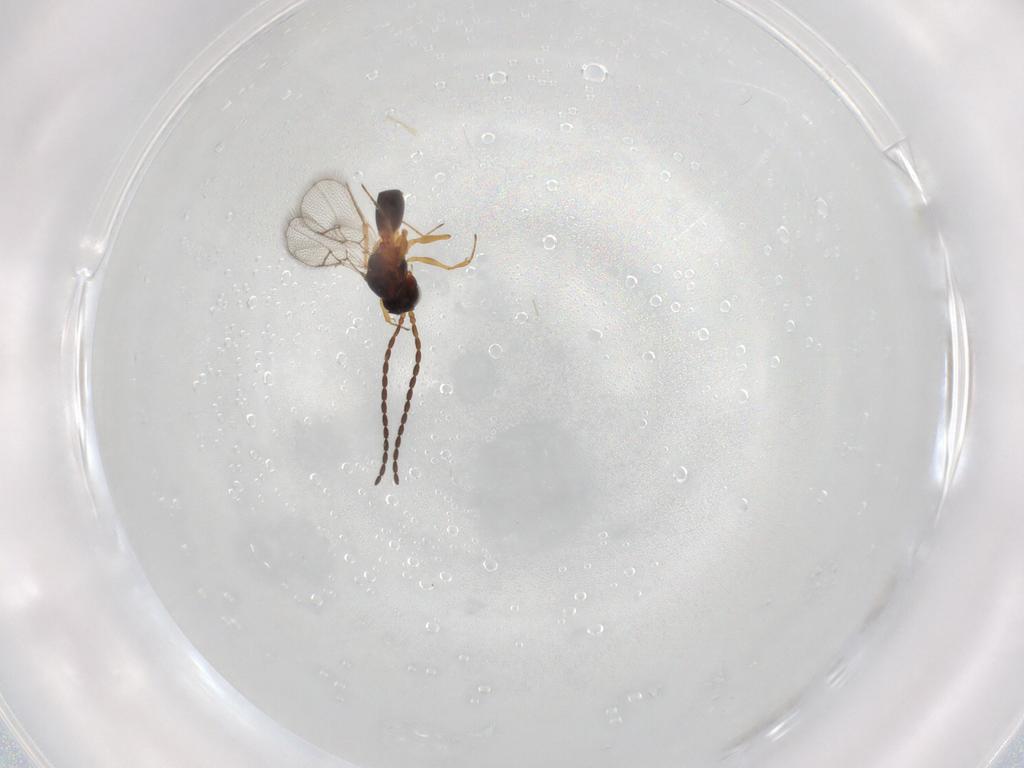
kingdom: Animalia
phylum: Arthropoda
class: Insecta
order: Hymenoptera
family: Figitidae
